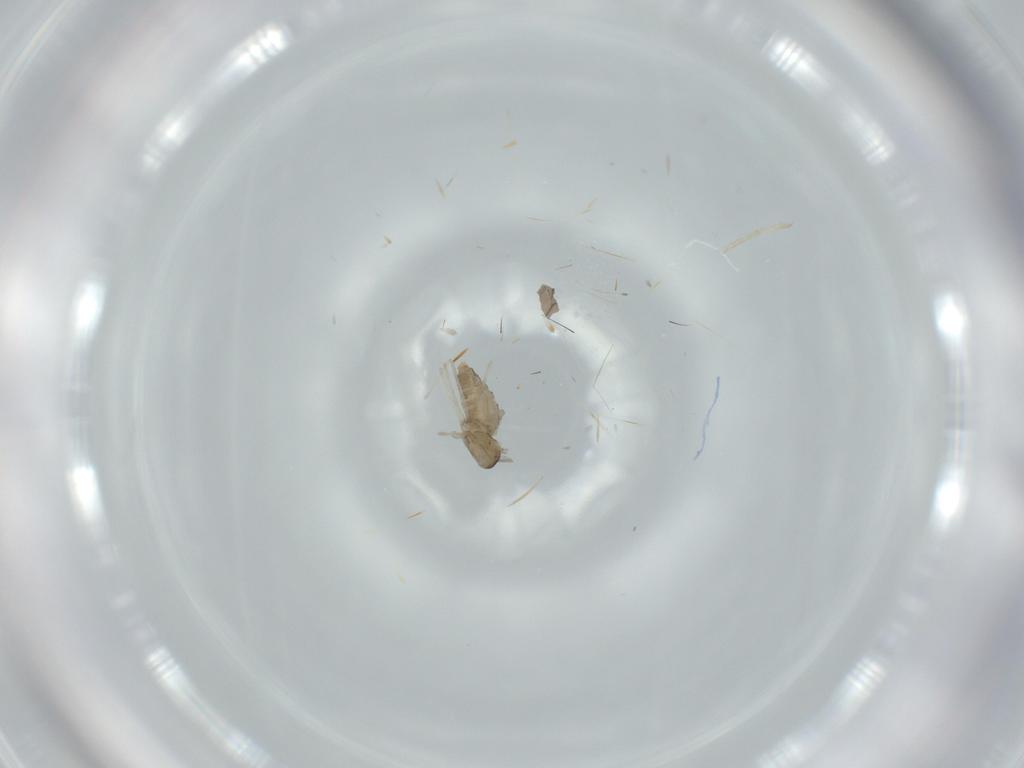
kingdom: Animalia
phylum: Arthropoda
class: Insecta
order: Diptera
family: Cecidomyiidae
